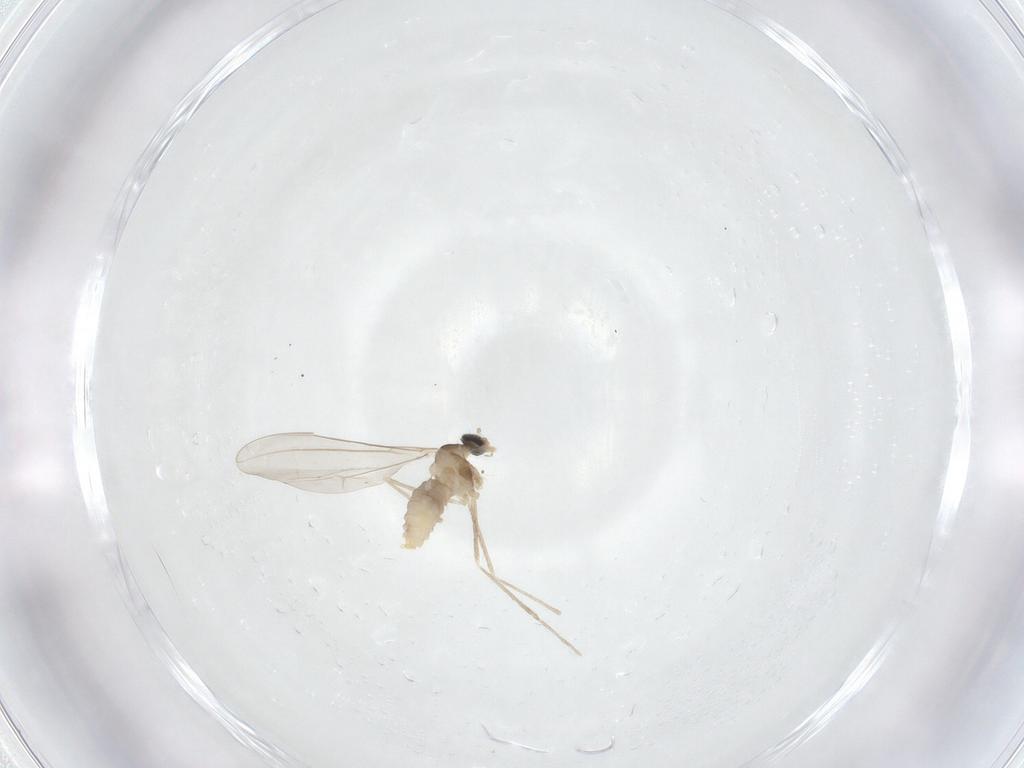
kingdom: Animalia
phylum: Arthropoda
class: Insecta
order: Diptera
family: Cecidomyiidae
